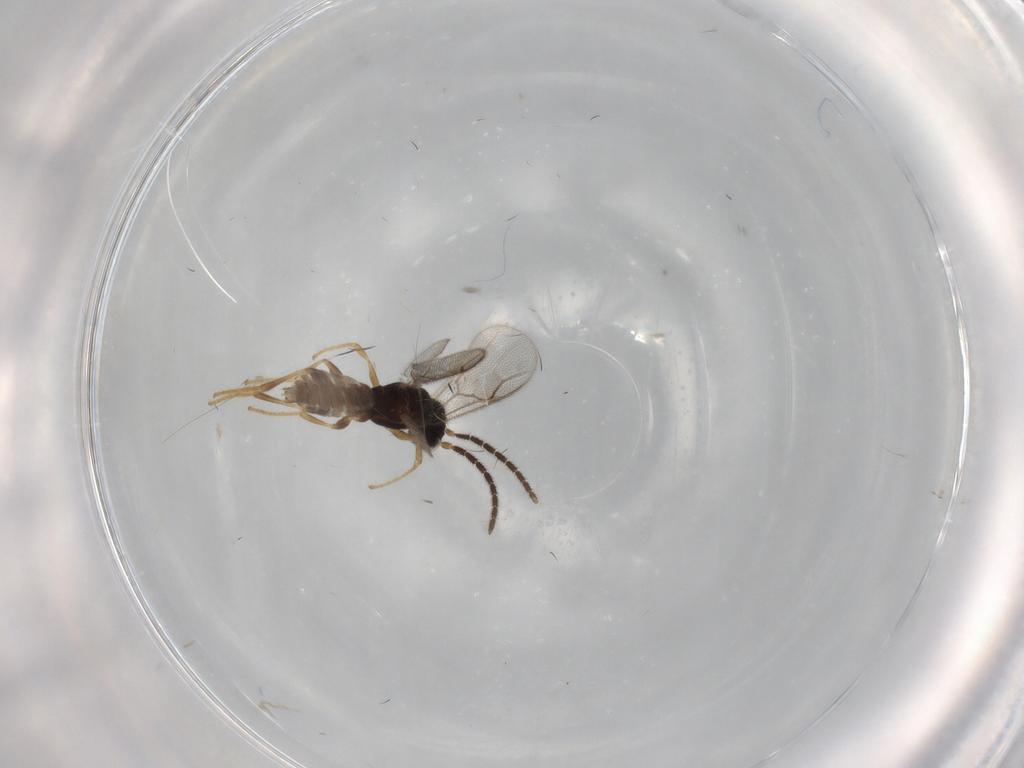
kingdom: Animalia
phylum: Arthropoda
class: Insecta
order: Hymenoptera
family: Dryinidae
